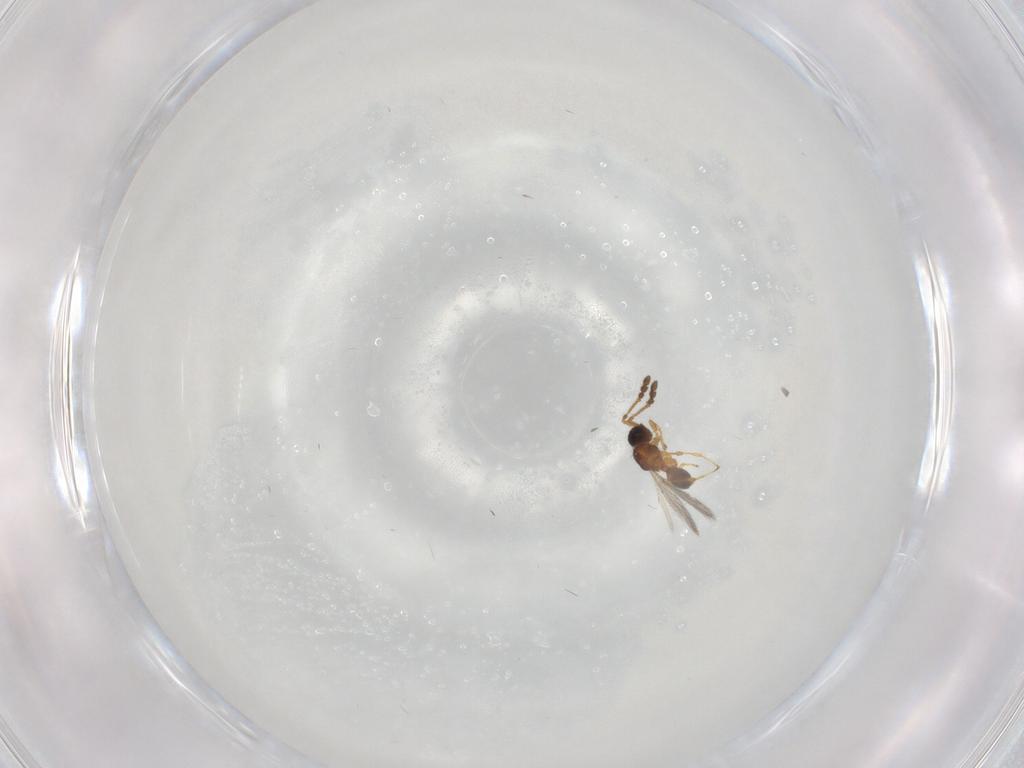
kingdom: Animalia
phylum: Arthropoda
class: Insecta
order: Hymenoptera
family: Diapriidae
